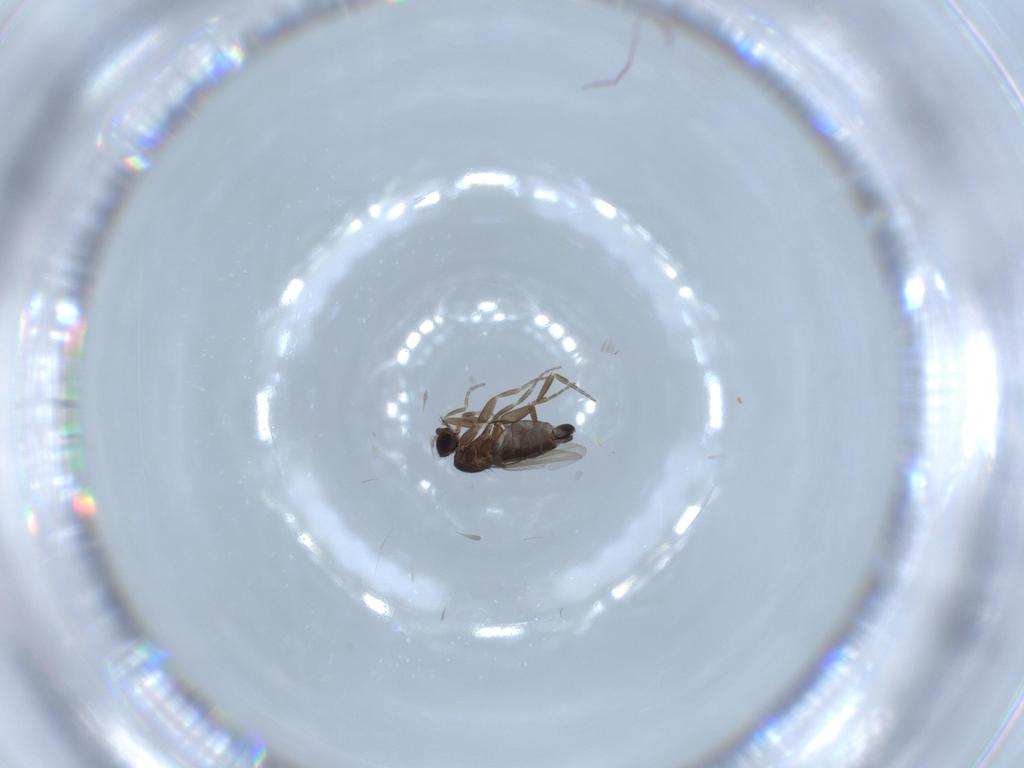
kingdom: Animalia
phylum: Arthropoda
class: Insecta
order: Diptera
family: Phoridae
